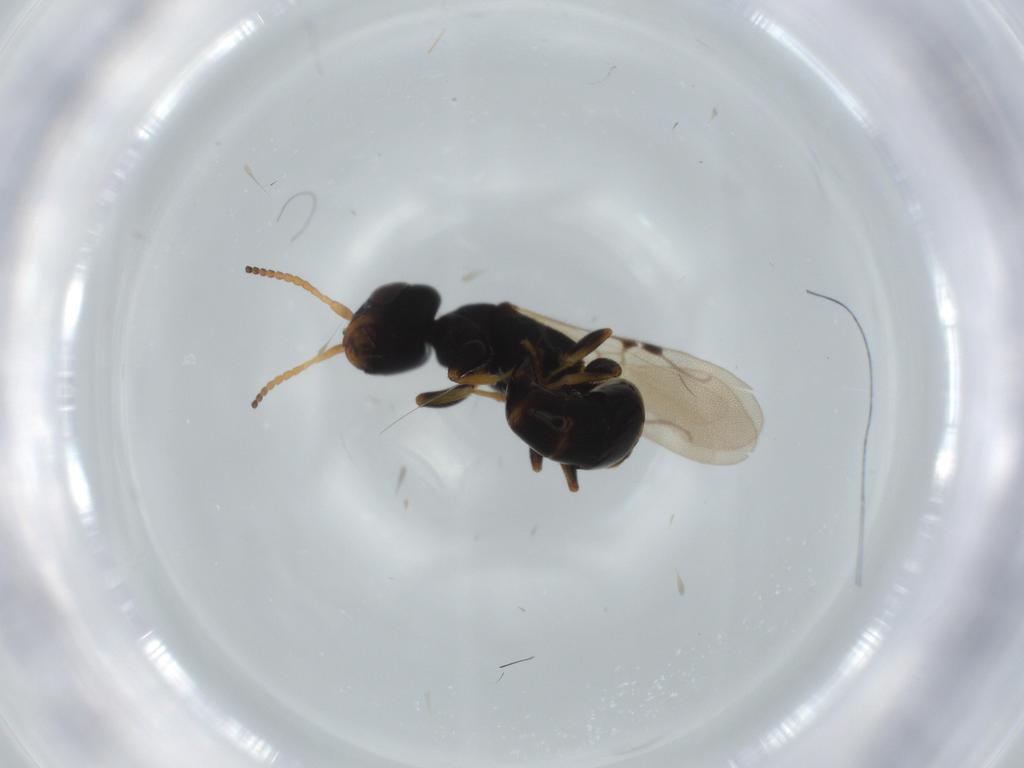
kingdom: Animalia
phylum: Arthropoda
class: Insecta
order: Hymenoptera
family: Bethylidae
